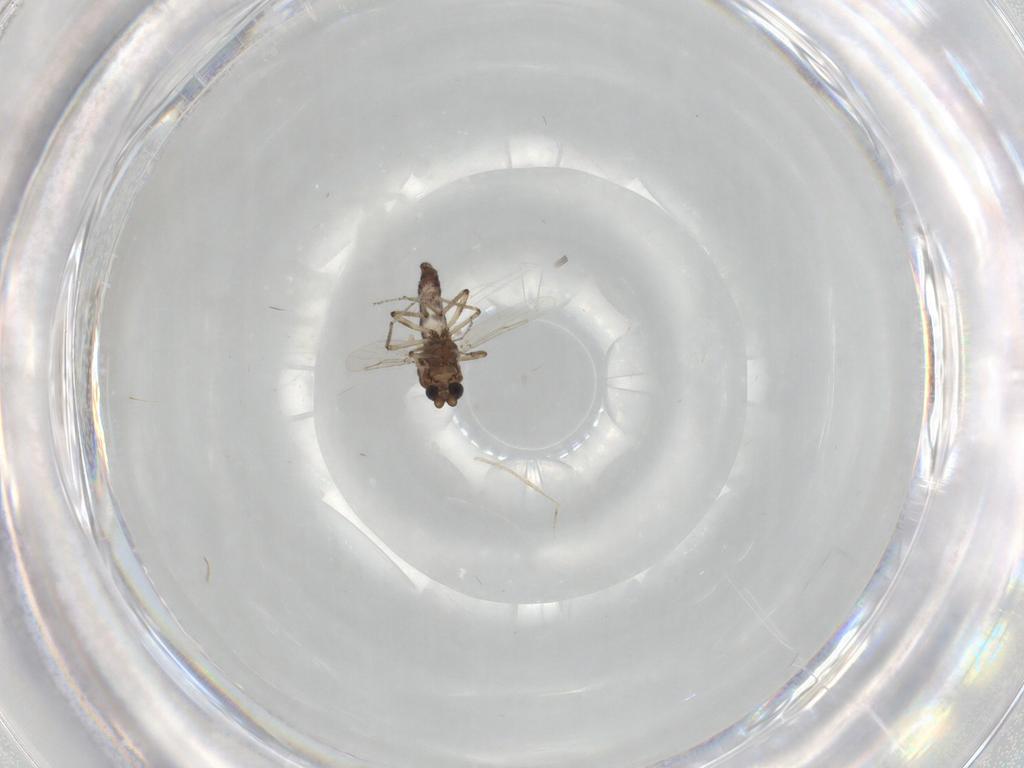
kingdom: Animalia
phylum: Arthropoda
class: Insecta
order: Diptera
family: Ceratopogonidae
